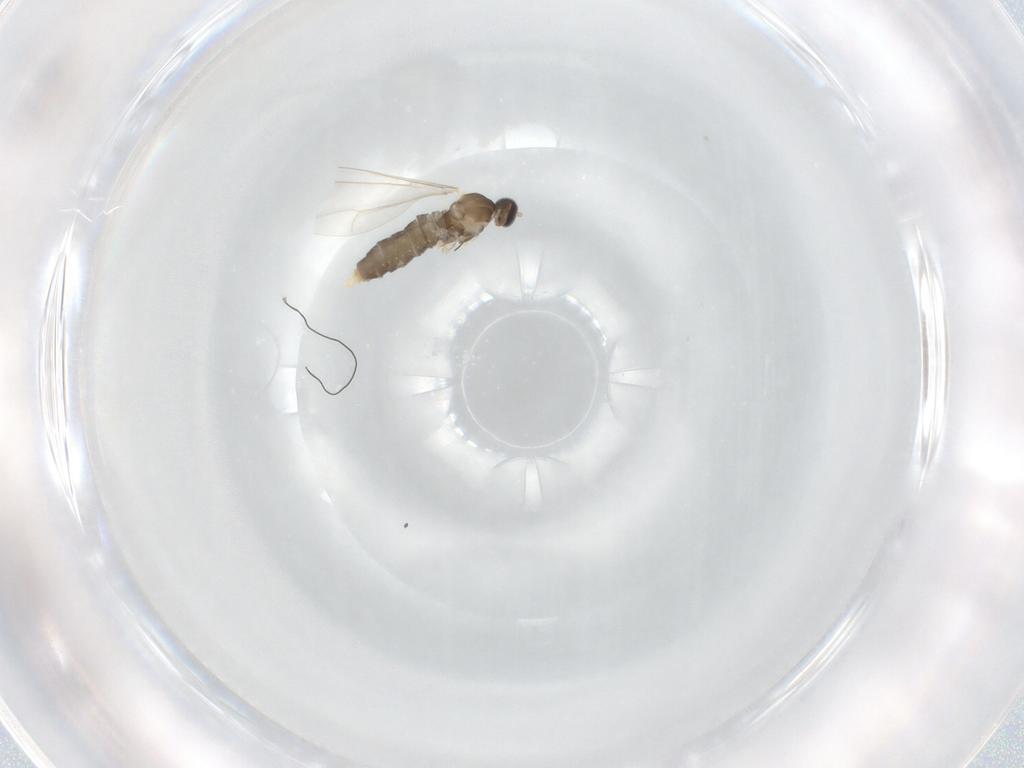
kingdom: Animalia
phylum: Arthropoda
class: Insecta
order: Diptera
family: Cecidomyiidae
